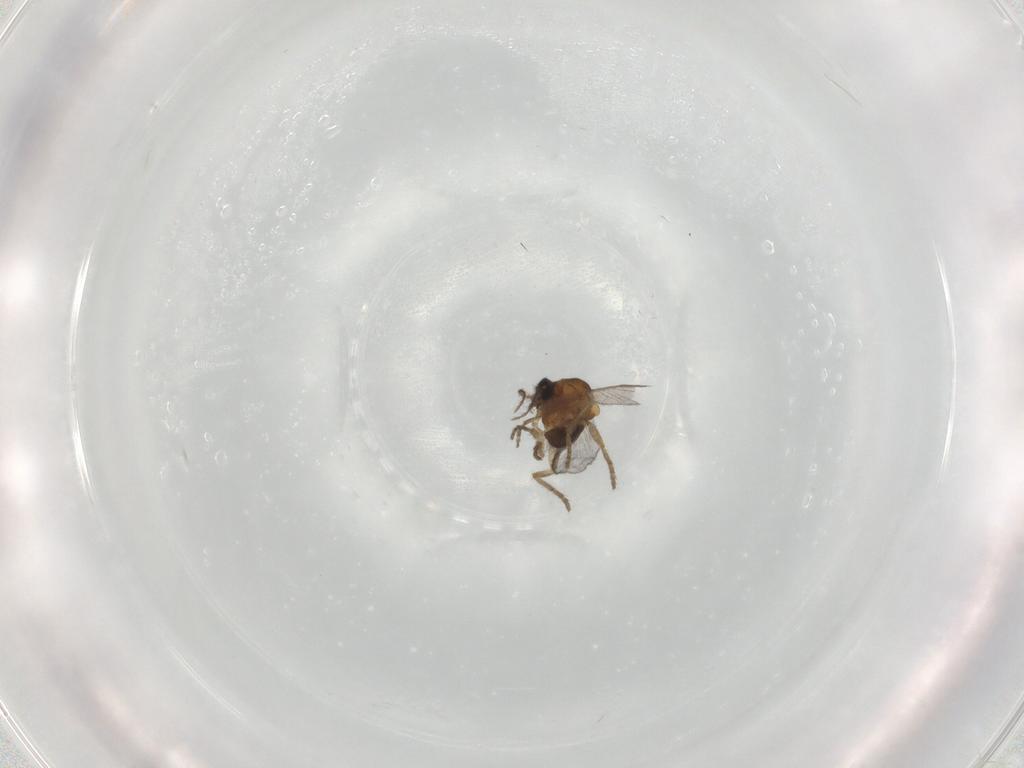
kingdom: Animalia
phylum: Arthropoda
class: Insecta
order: Diptera
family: Ceratopogonidae
